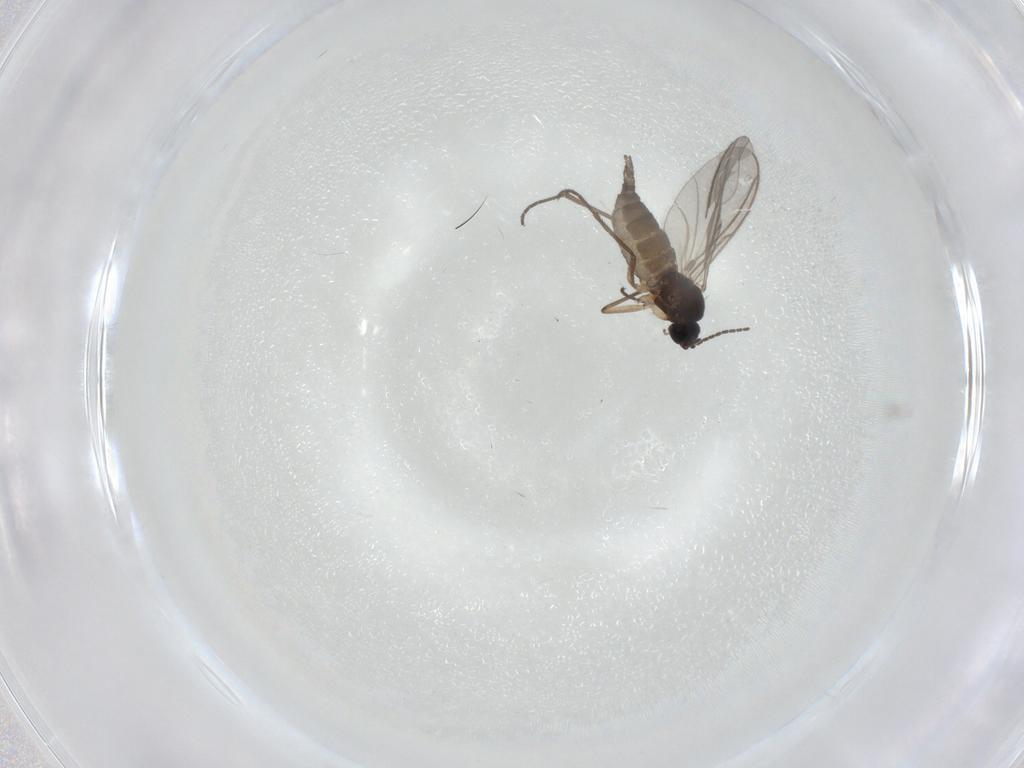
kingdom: Animalia
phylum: Arthropoda
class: Insecta
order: Diptera
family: Sciaridae
